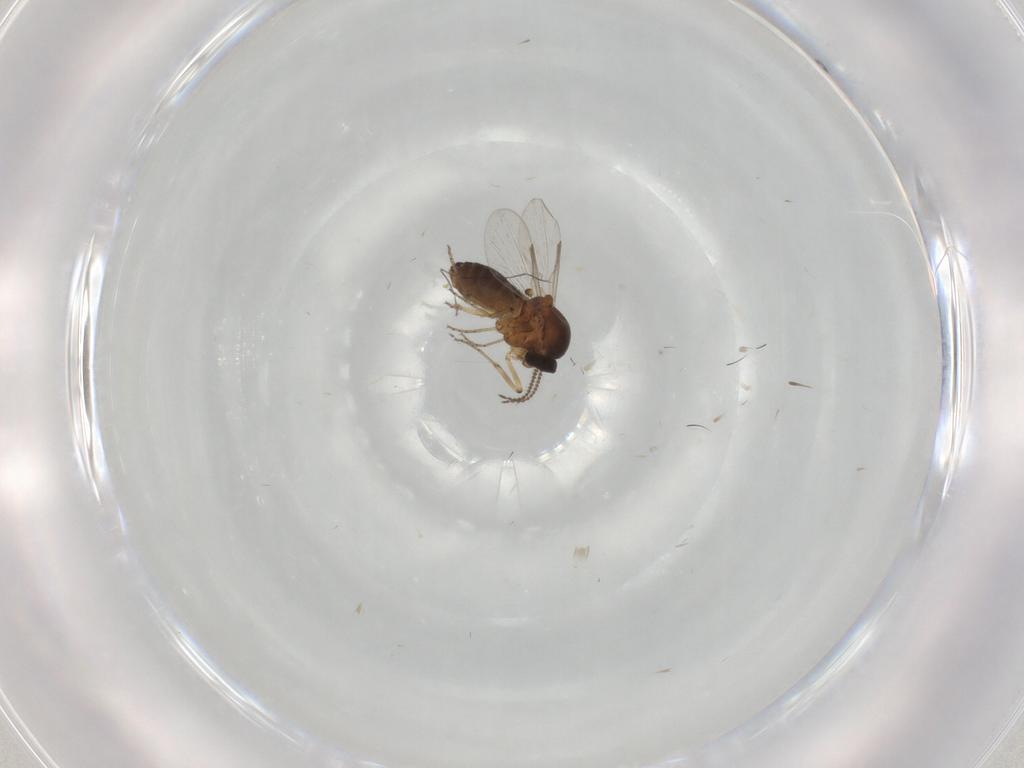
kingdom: Animalia
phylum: Arthropoda
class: Insecta
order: Diptera
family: Ceratopogonidae
